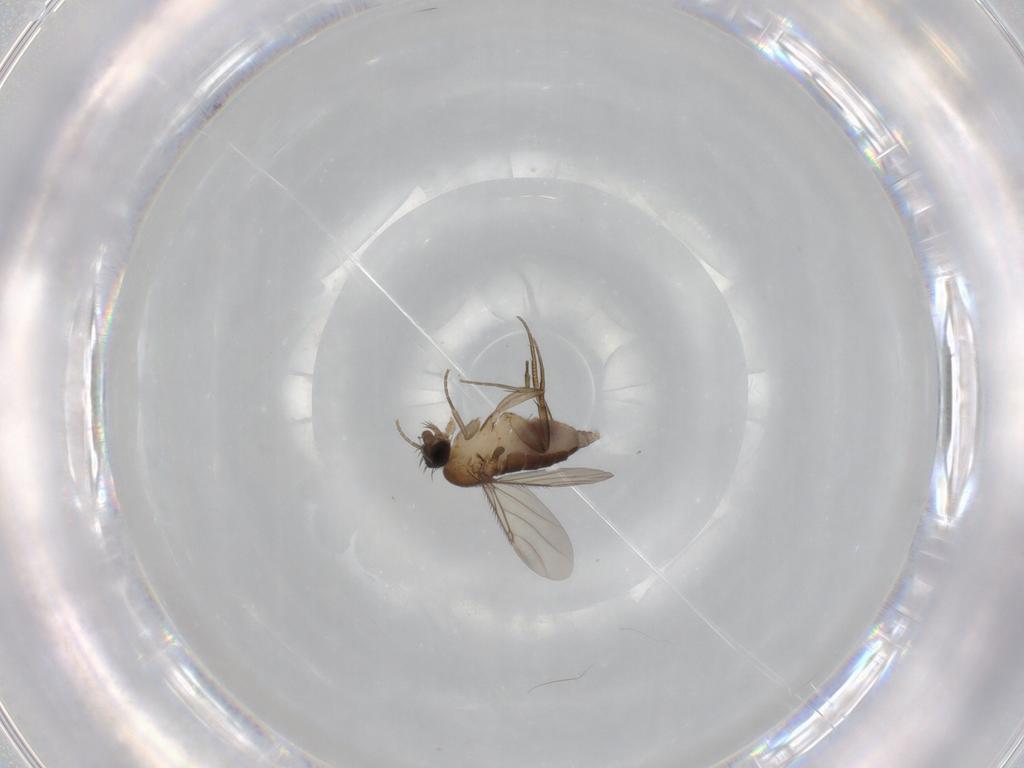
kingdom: Animalia
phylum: Arthropoda
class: Insecta
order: Diptera
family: Phoridae
